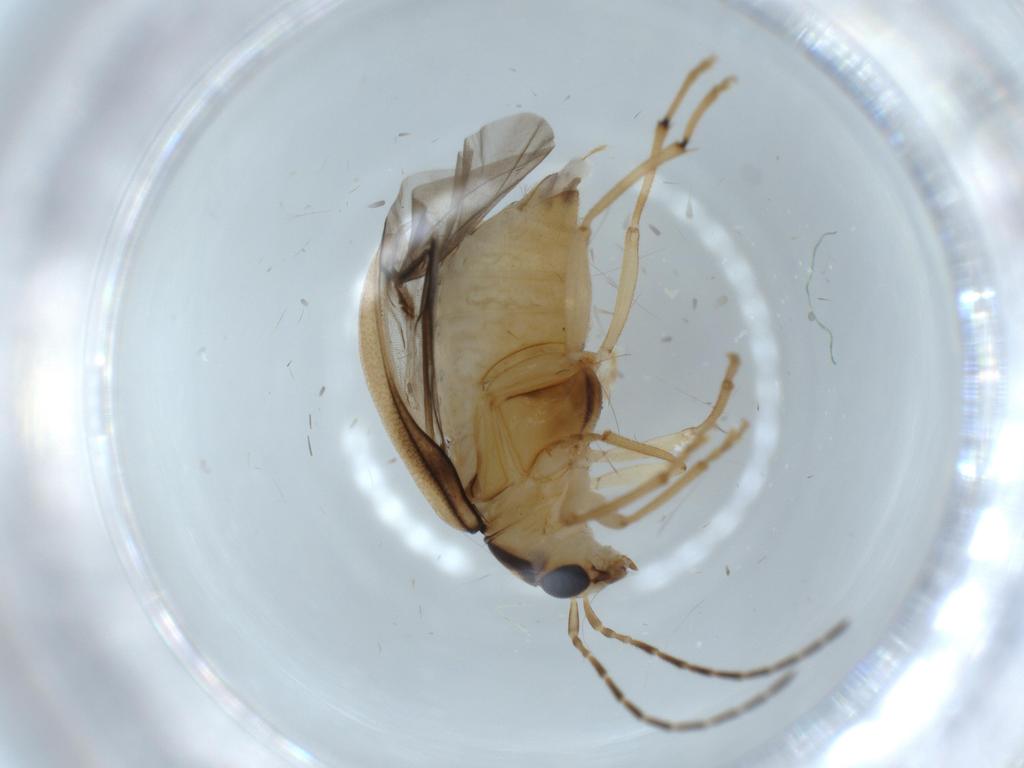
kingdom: Animalia
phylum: Arthropoda
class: Insecta
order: Coleoptera
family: Chrysomelidae
